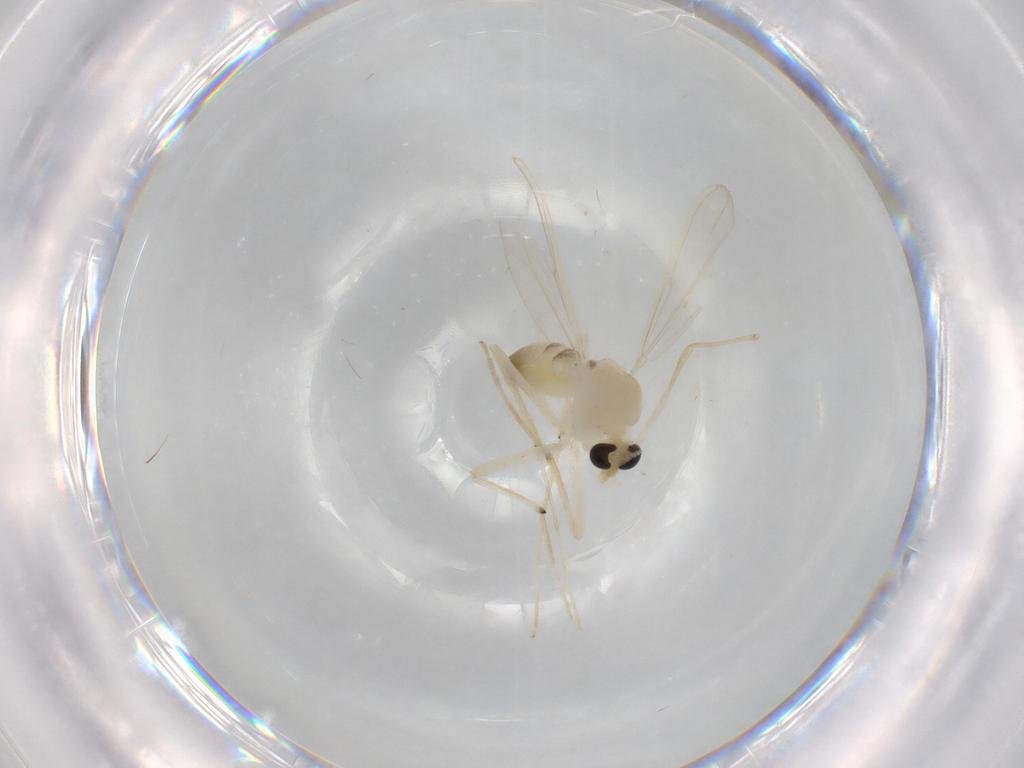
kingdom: Animalia
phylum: Arthropoda
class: Insecta
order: Diptera
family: Chironomidae
